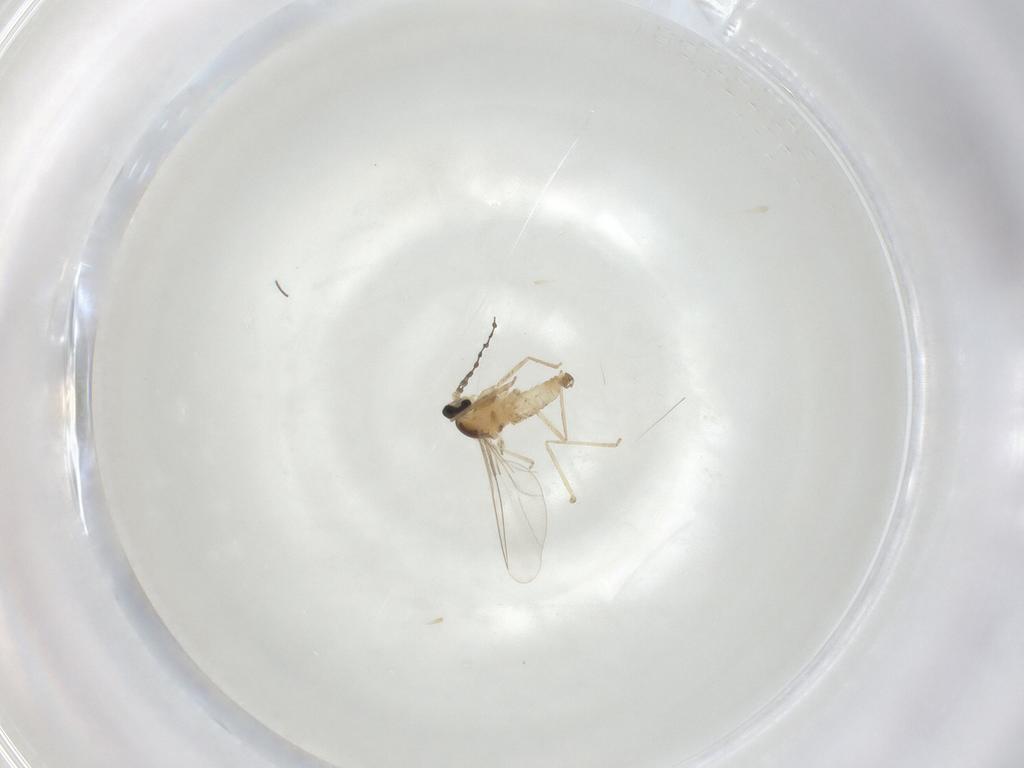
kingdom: Animalia
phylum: Arthropoda
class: Insecta
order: Diptera
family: Cecidomyiidae
